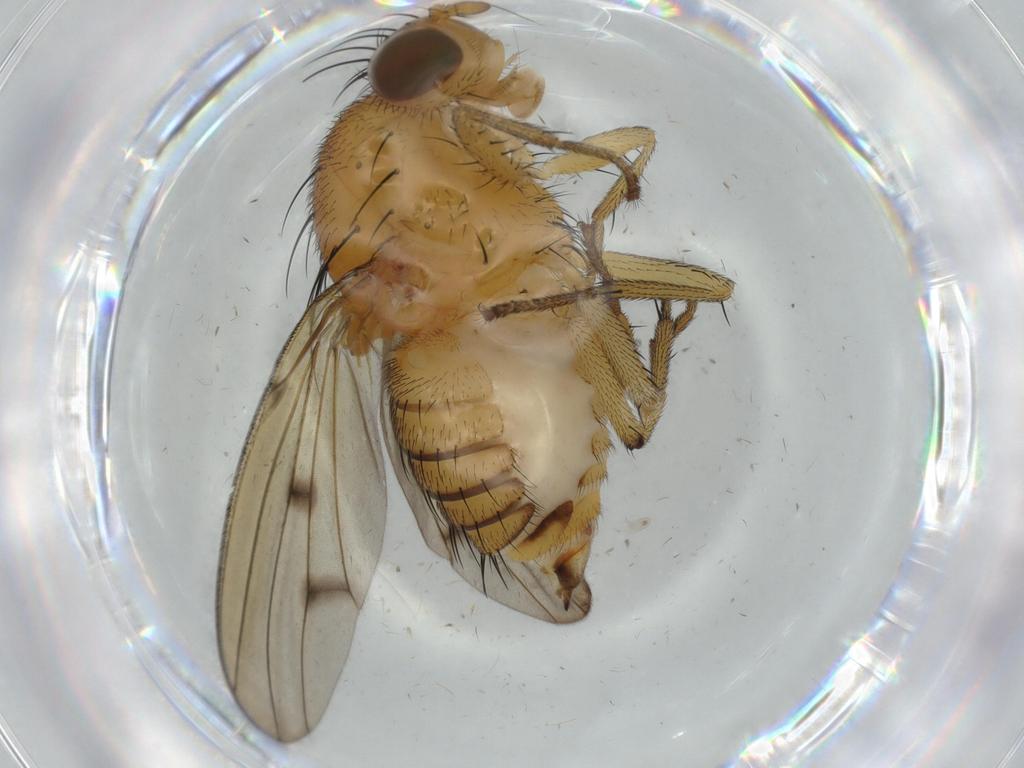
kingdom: Animalia
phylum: Arthropoda
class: Insecta
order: Diptera
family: Cecidomyiidae
